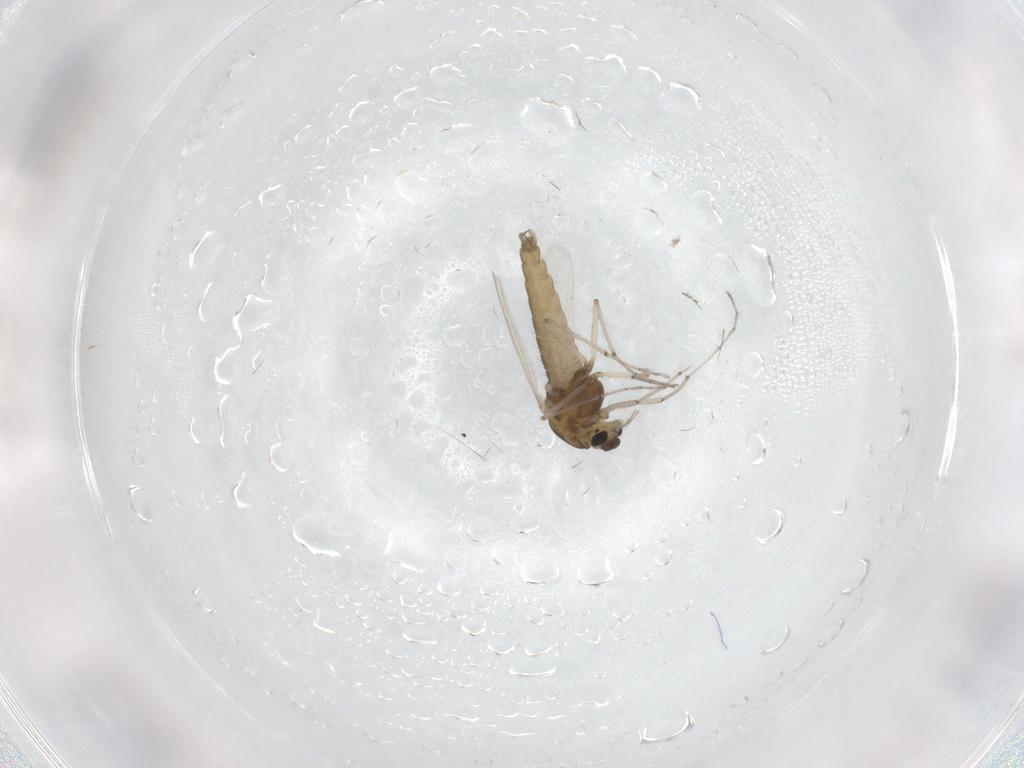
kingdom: Animalia
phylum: Arthropoda
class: Insecta
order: Diptera
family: Chironomidae
